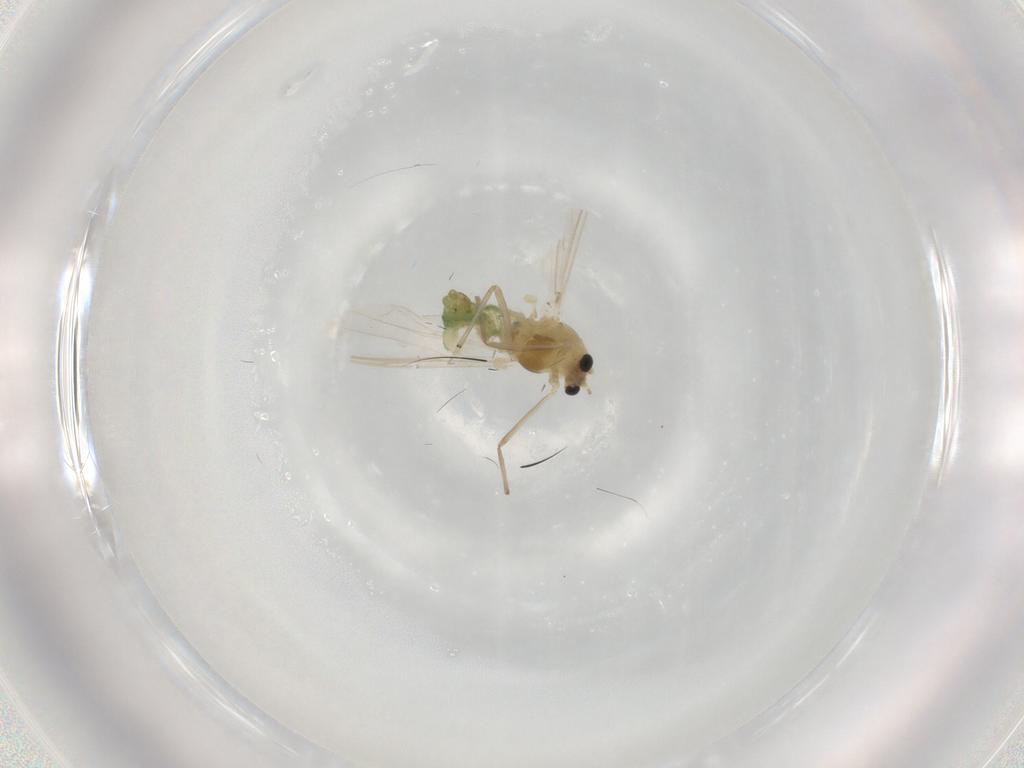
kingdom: Animalia
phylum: Arthropoda
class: Insecta
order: Diptera
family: Chironomidae
